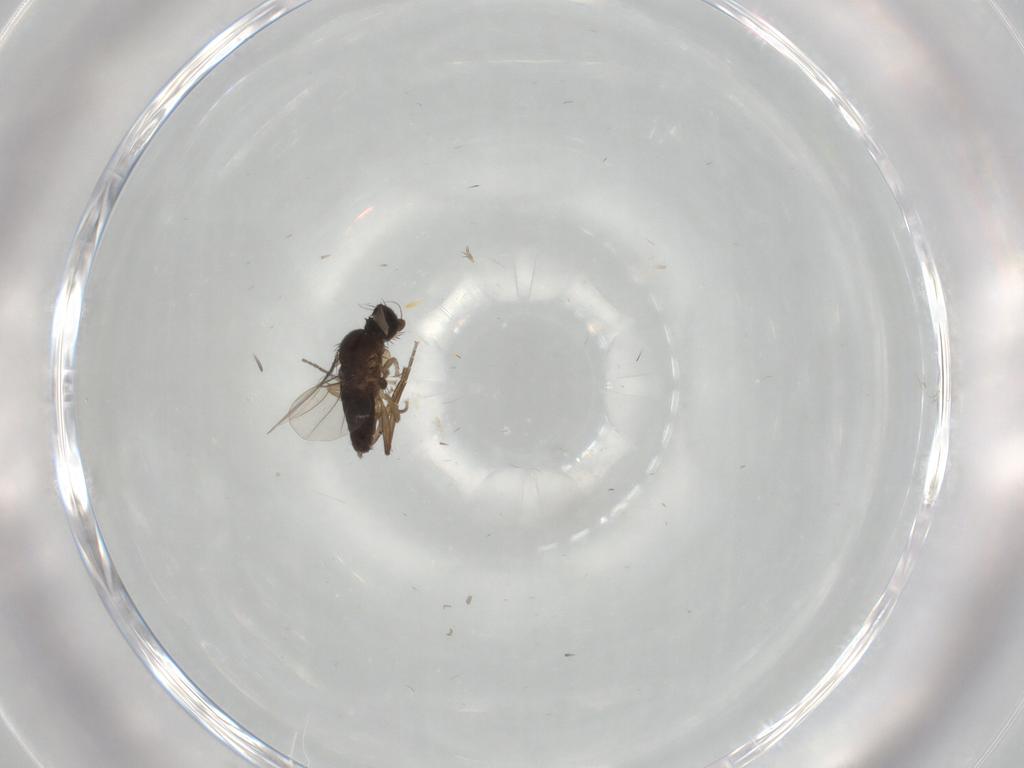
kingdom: Animalia
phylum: Arthropoda
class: Insecta
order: Diptera
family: Phoridae
